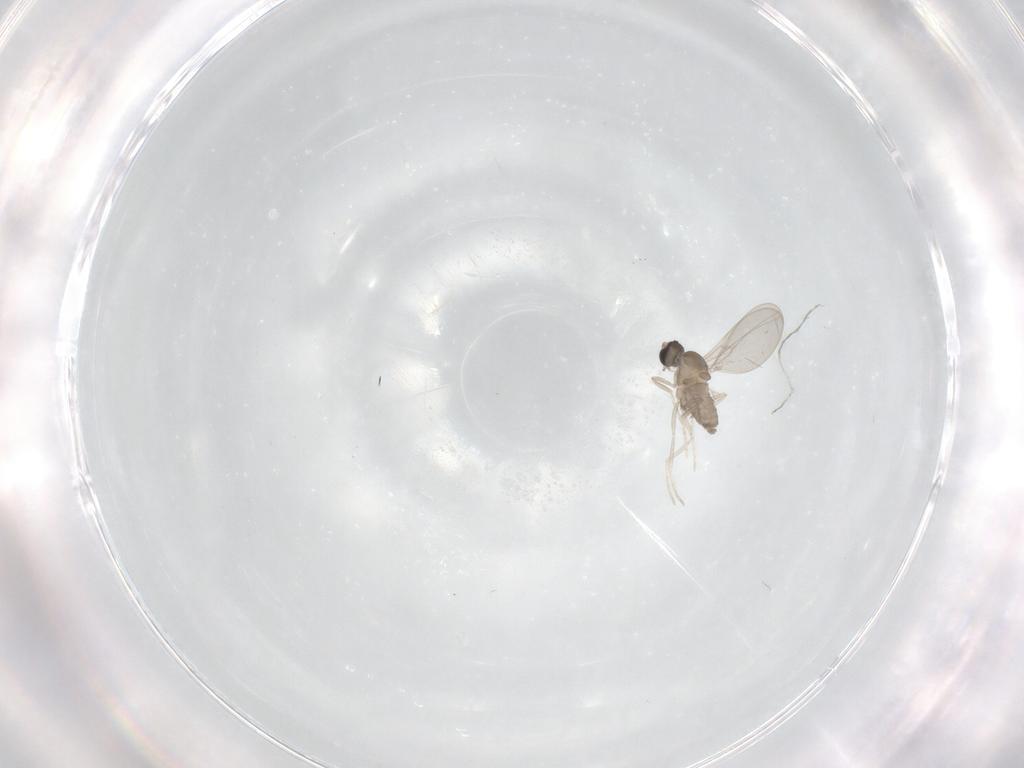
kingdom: Animalia
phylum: Arthropoda
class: Insecta
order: Diptera
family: Cecidomyiidae
